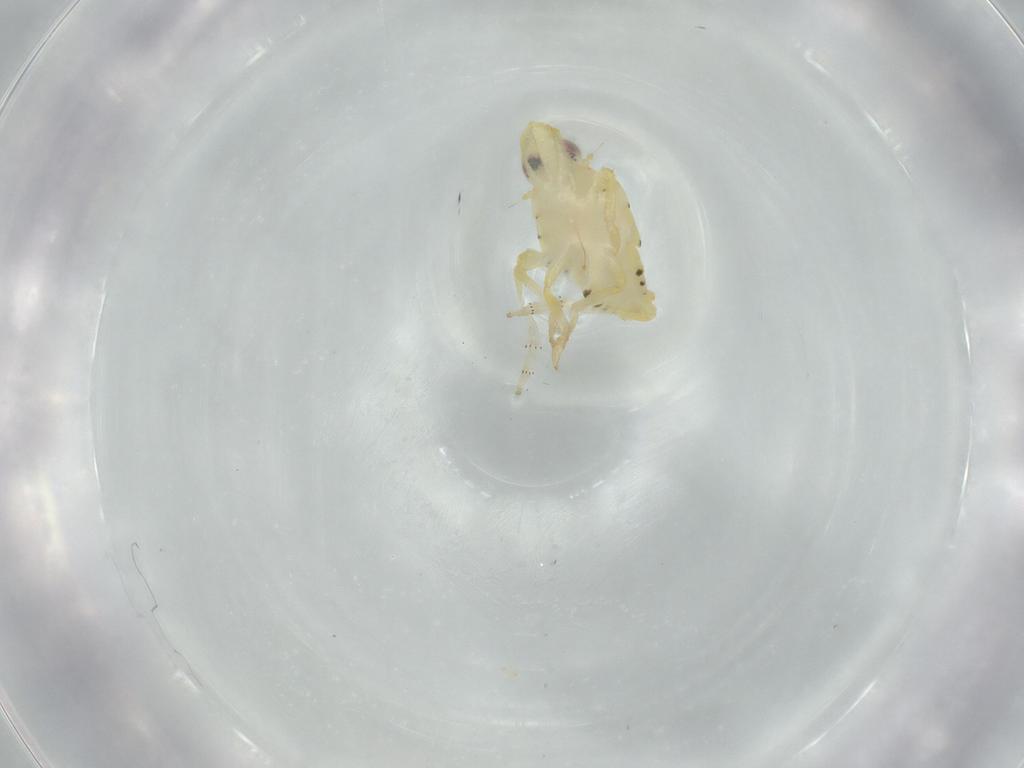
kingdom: Animalia
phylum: Arthropoda
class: Insecta
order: Hemiptera
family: Tropiduchidae
